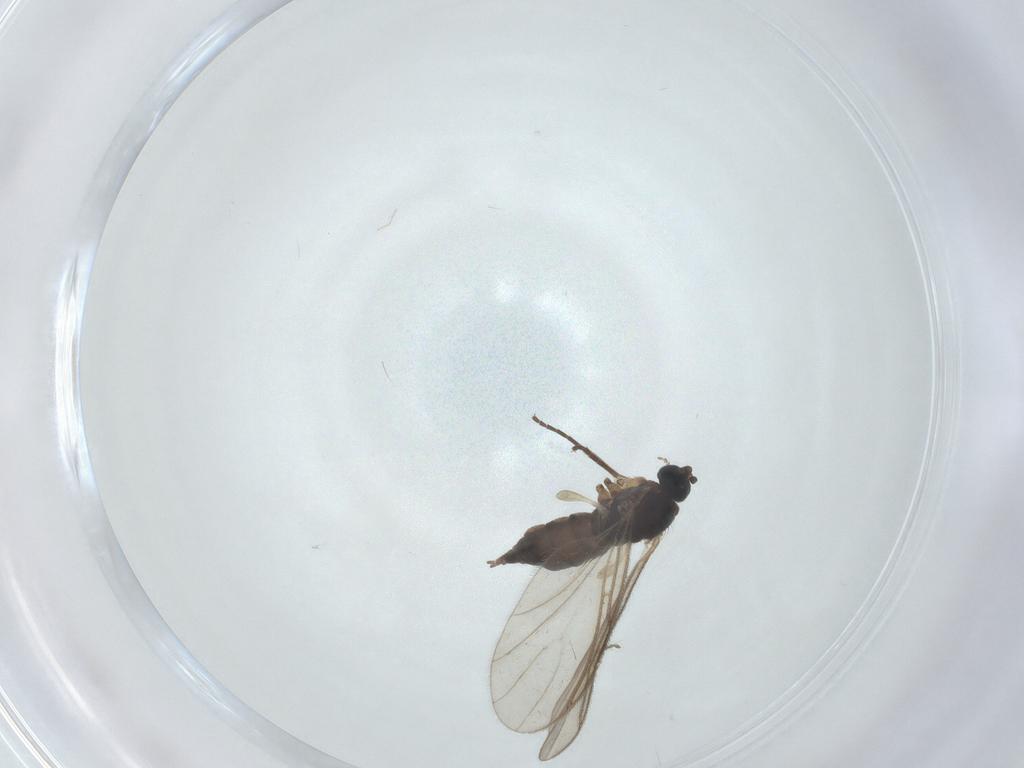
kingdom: Animalia
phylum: Arthropoda
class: Insecta
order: Diptera
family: Sciaridae
